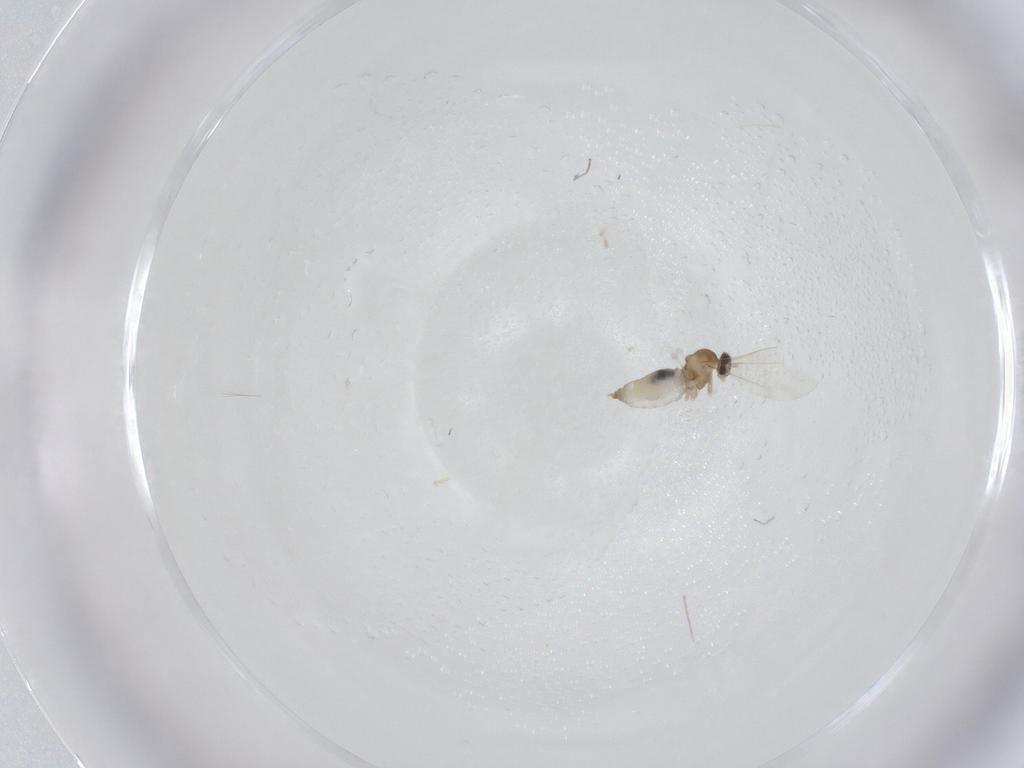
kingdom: Animalia
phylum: Arthropoda
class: Insecta
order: Diptera
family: Cecidomyiidae
